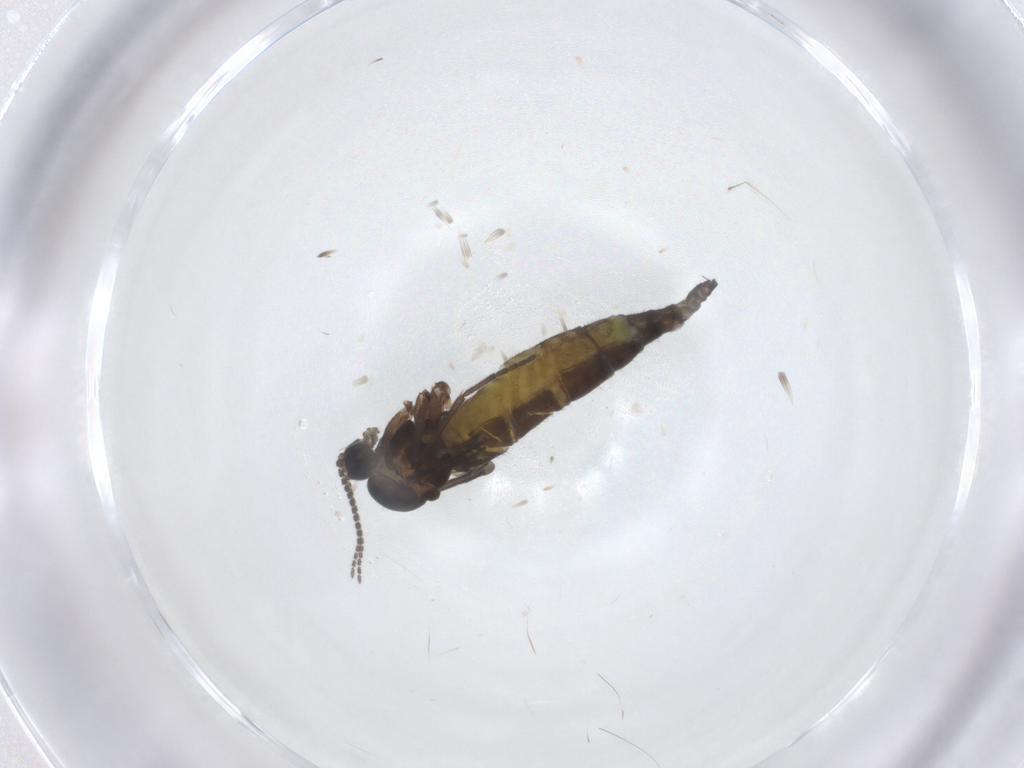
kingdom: Animalia
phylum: Arthropoda
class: Insecta
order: Diptera
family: Sciaridae
